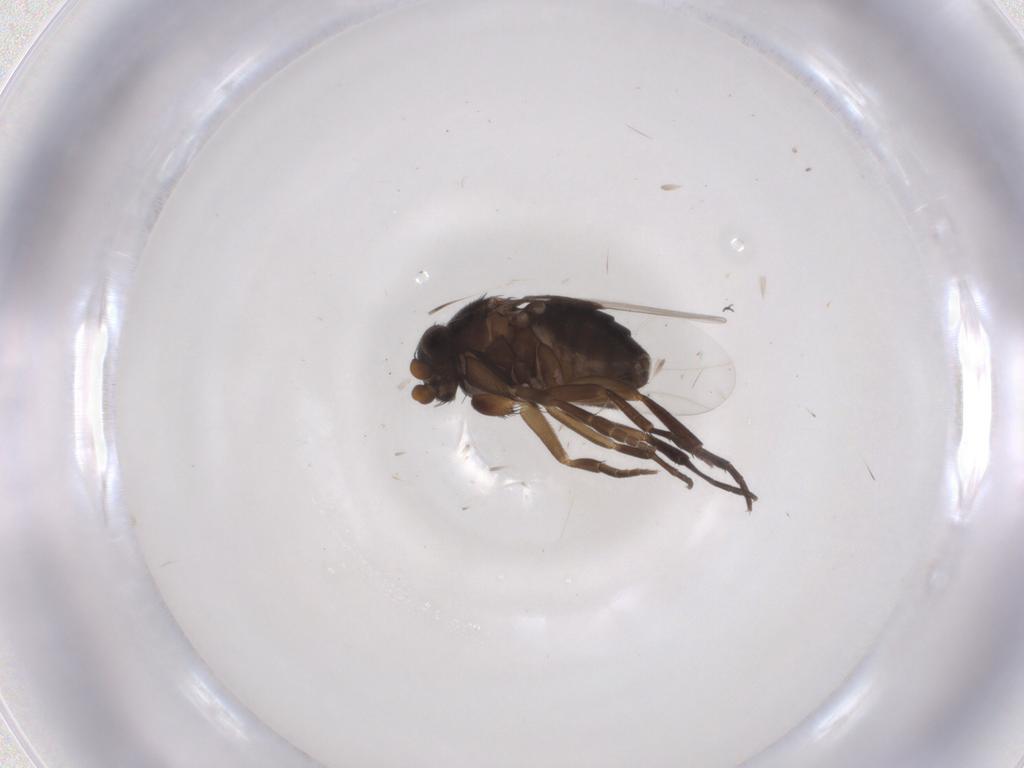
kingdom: Animalia
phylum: Arthropoda
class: Insecta
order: Diptera
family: Phoridae
